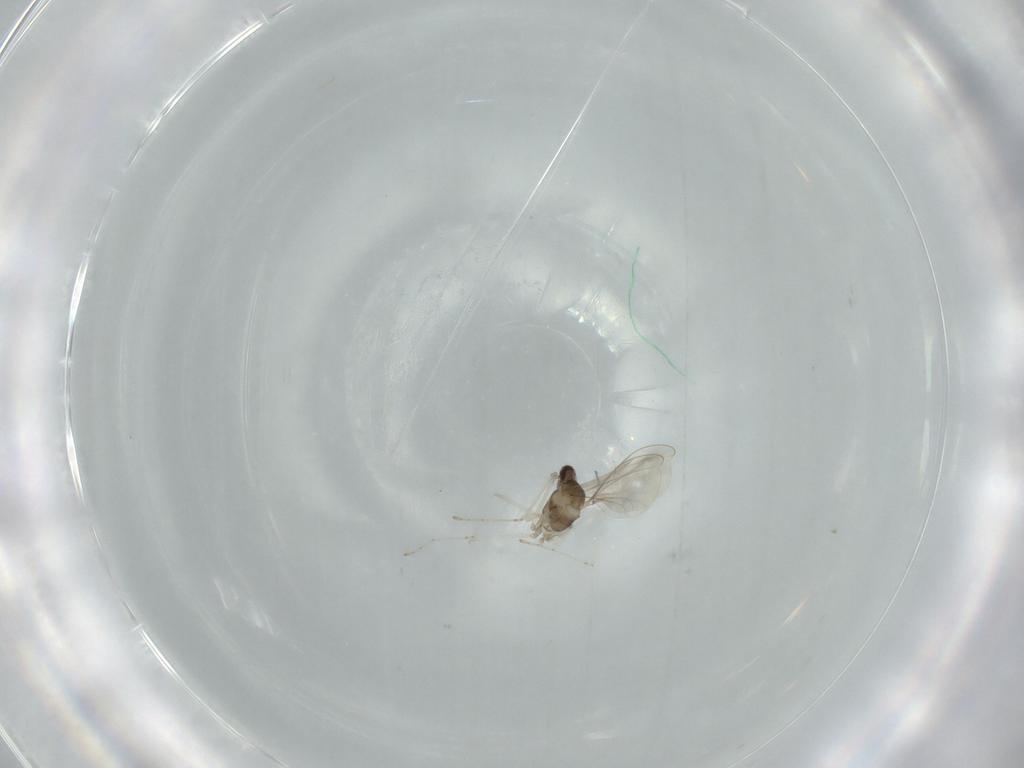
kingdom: Animalia
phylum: Arthropoda
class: Insecta
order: Diptera
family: Cecidomyiidae
